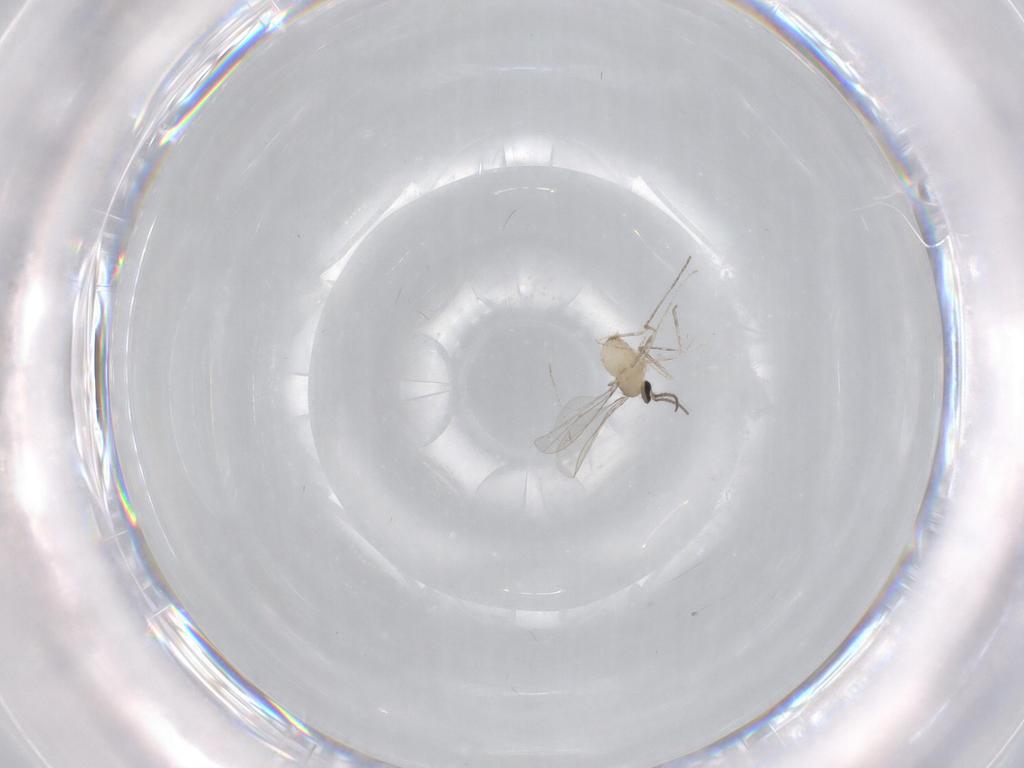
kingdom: Animalia
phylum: Arthropoda
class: Insecta
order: Diptera
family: Cecidomyiidae
